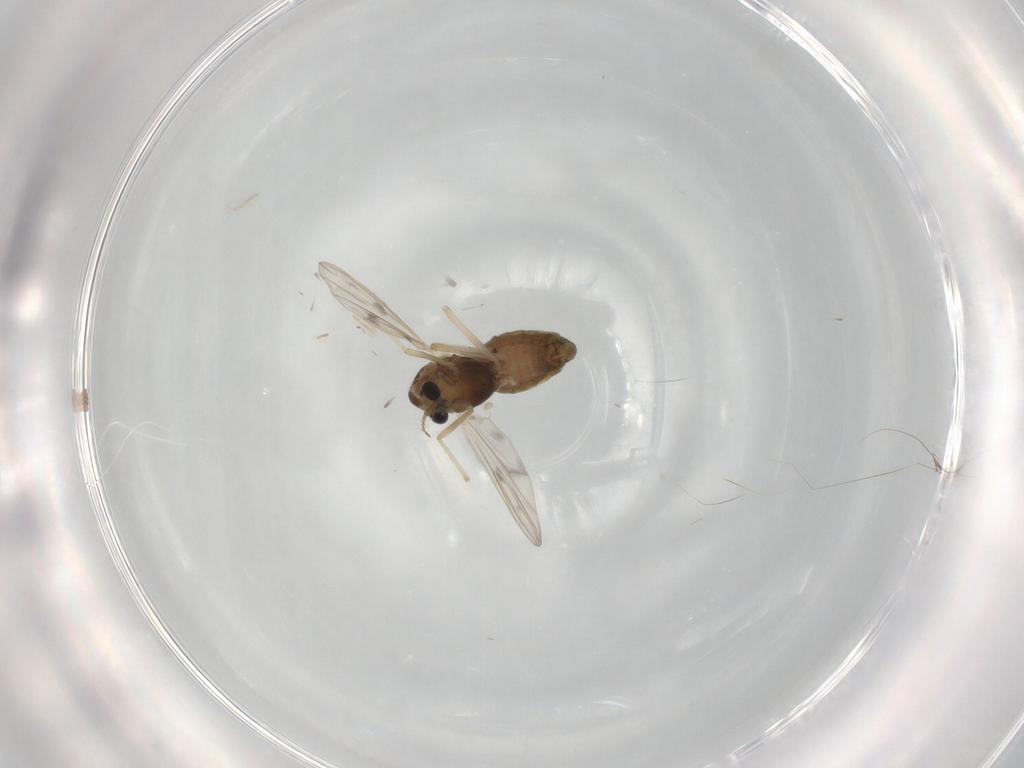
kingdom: Animalia
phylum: Arthropoda
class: Insecta
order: Diptera
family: Chironomidae
